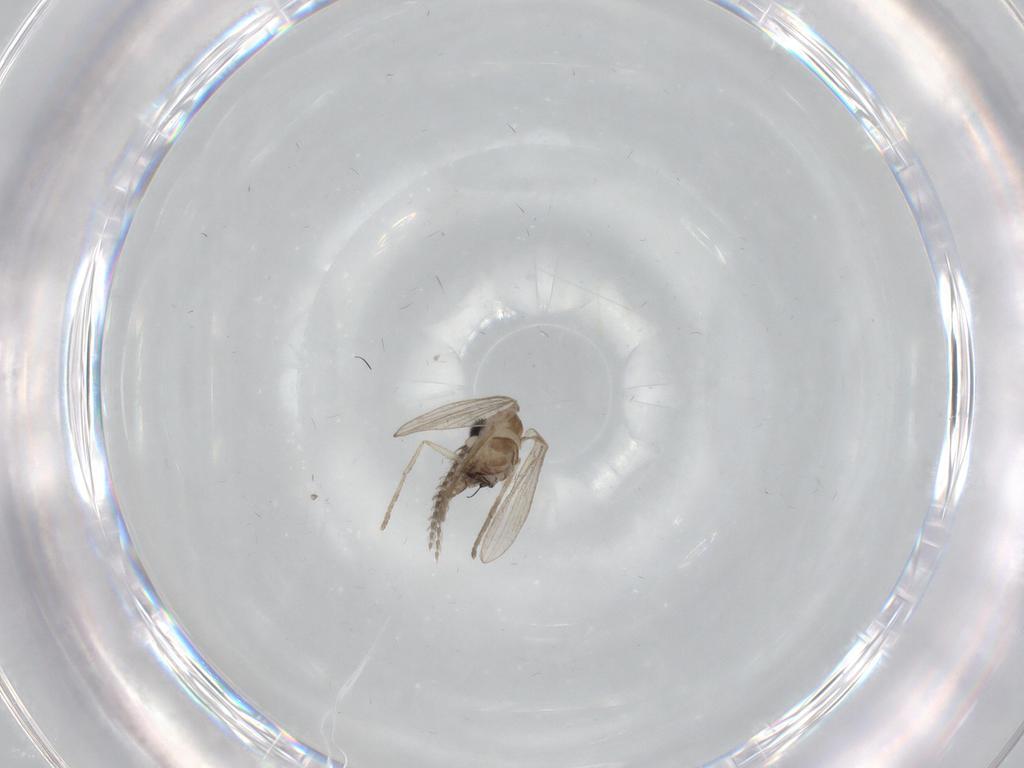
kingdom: Animalia
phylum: Arthropoda
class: Insecta
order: Diptera
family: Psychodidae
